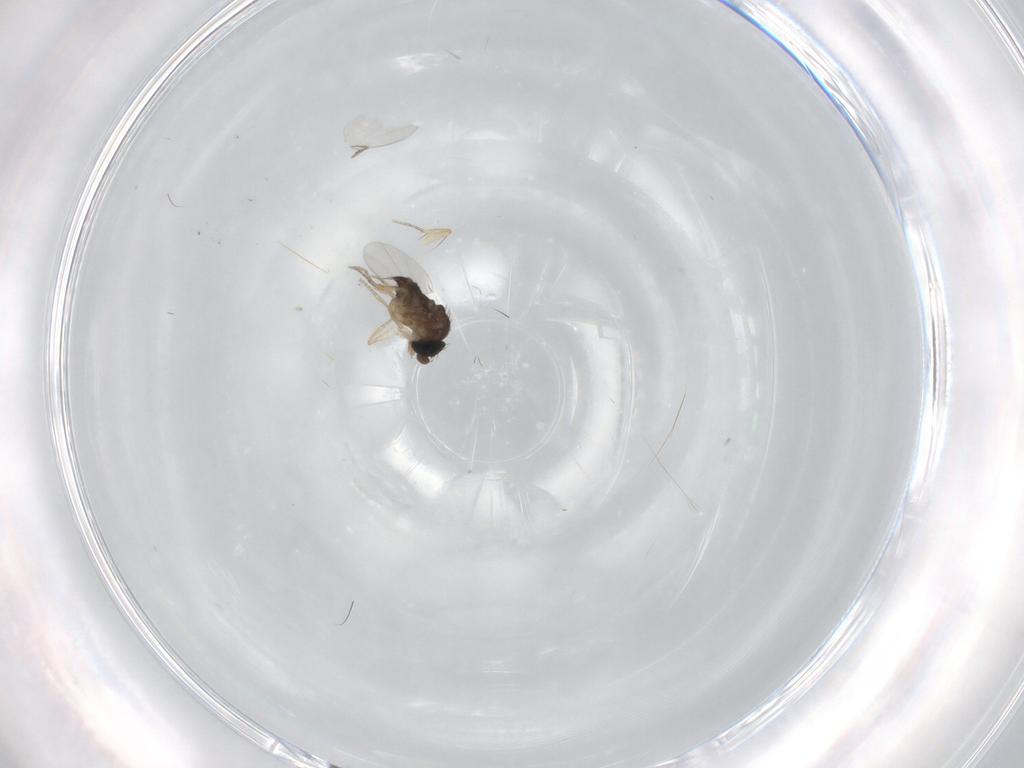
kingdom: Animalia
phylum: Arthropoda
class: Insecta
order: Diptera
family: Phoridae
